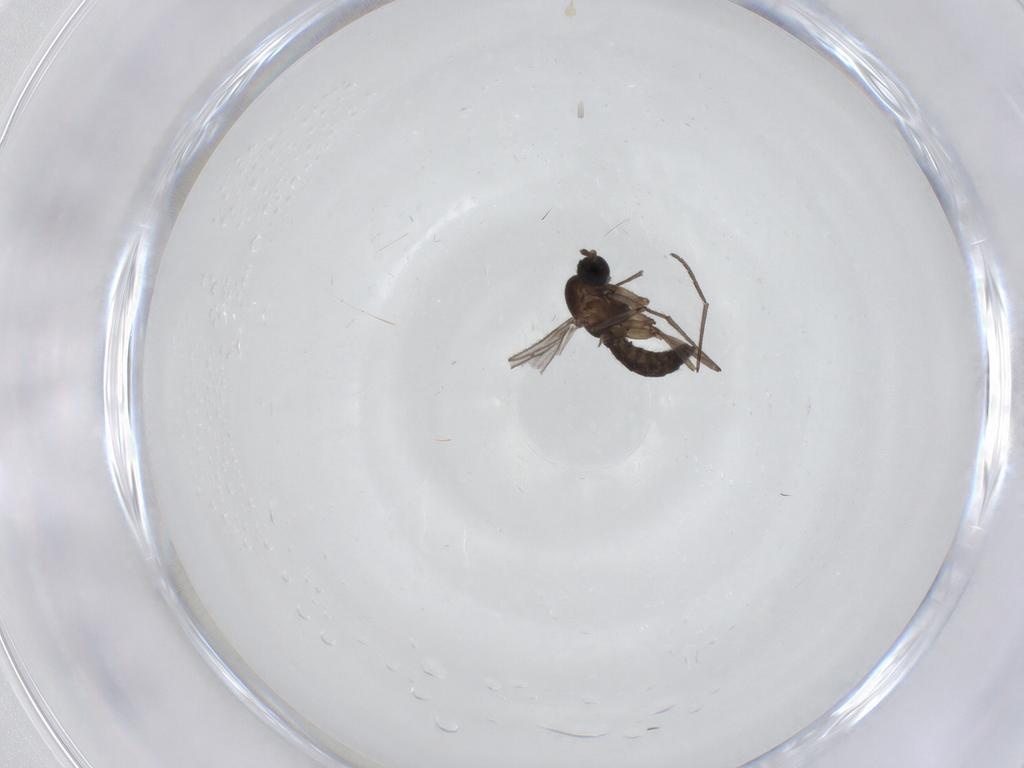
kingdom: Animalia
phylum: Arthropoda
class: Insecta
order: Diptera
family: Sciaridae
